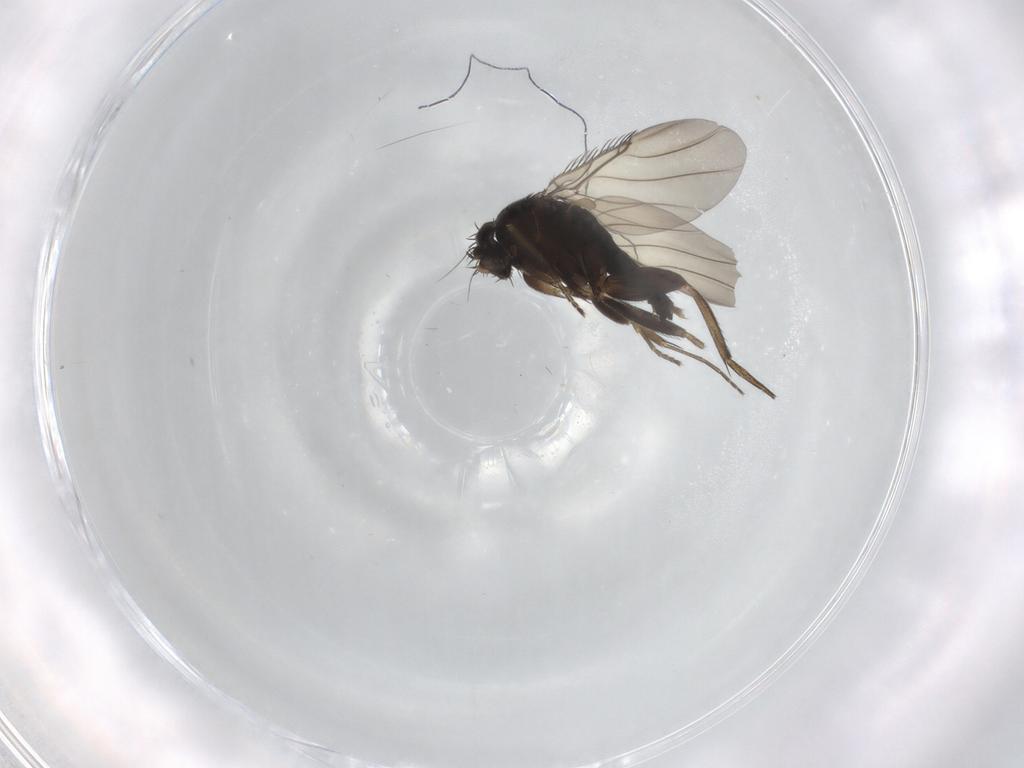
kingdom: Animalia
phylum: Arthropoda
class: Insecta
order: Diptera
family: Phoridae
